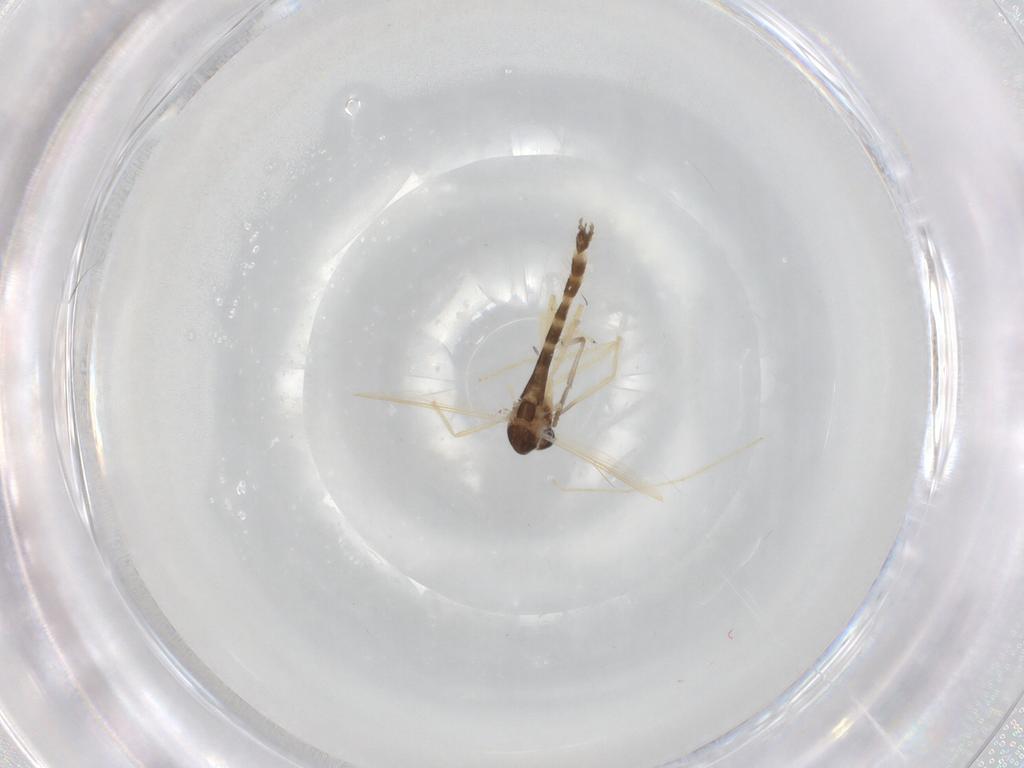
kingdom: Animalia
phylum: Arthropoda
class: Insecta
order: Diptera
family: Chironomidae
